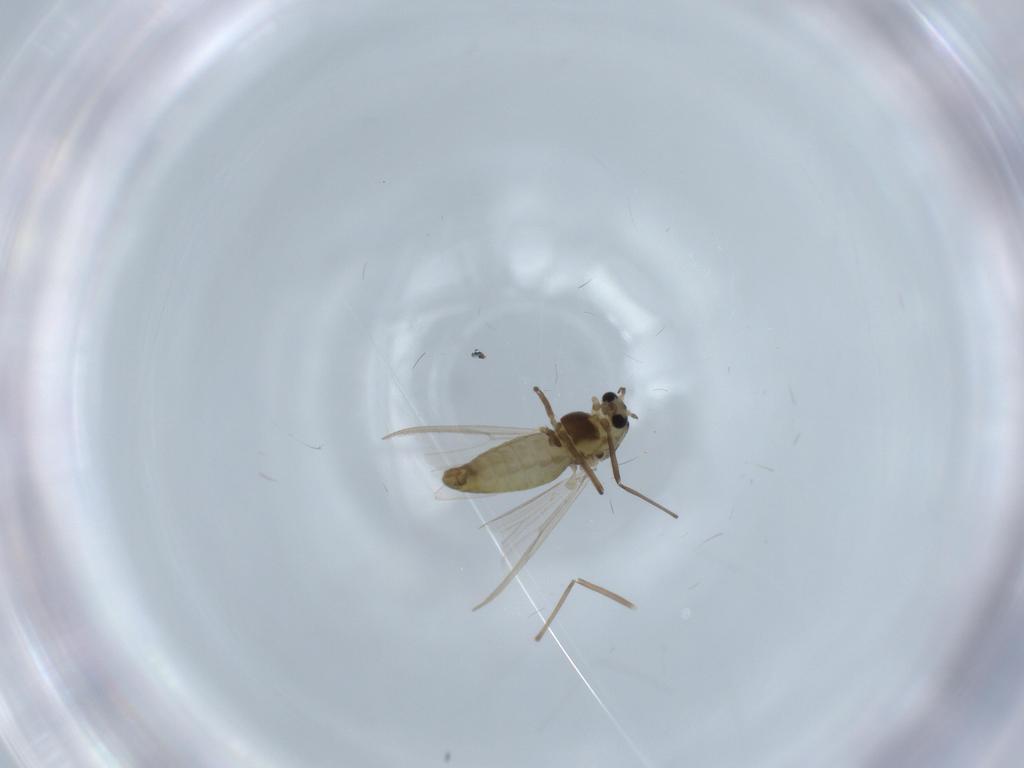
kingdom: Animalia
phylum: Arthropoda
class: Insecta
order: Diptera
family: Chironomidae
